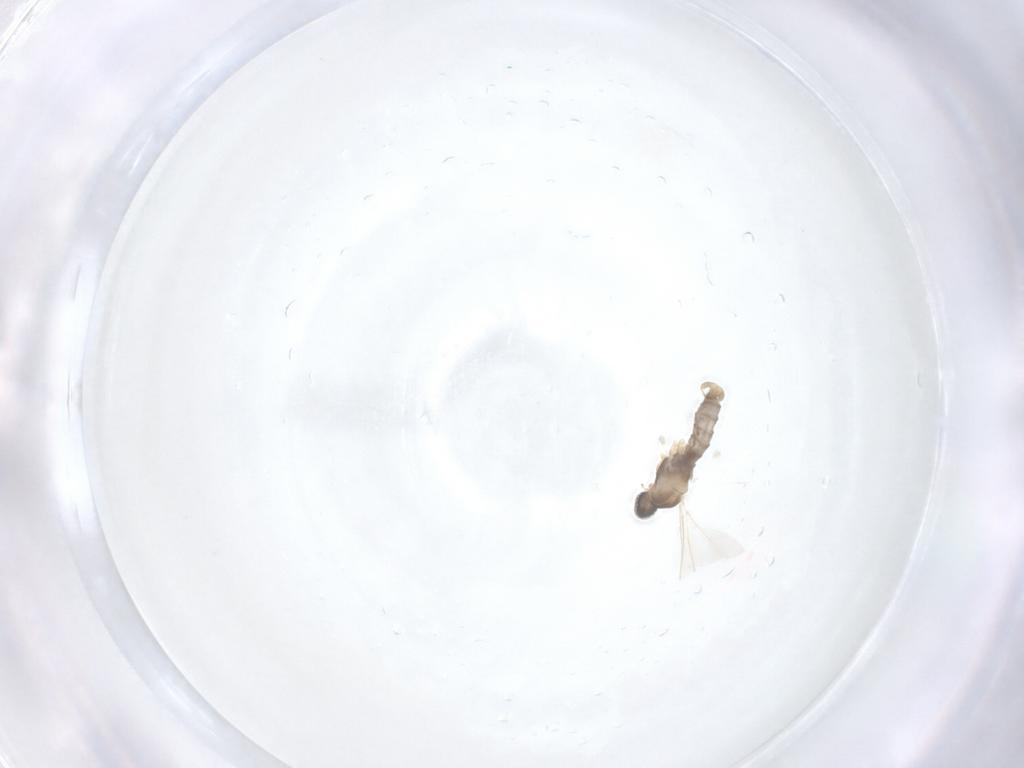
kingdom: Animalia
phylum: Arthropoda
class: Insecta
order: Diptera
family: Cecidomyiidae
